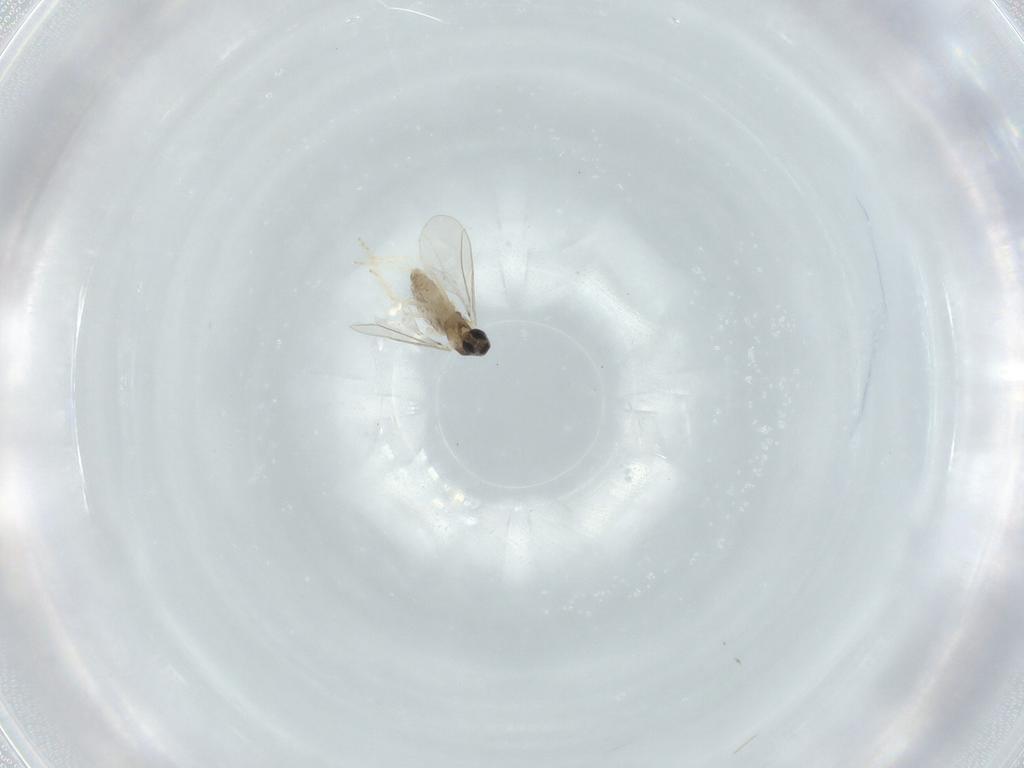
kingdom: Animalia
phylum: Arthropoda
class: Insecta
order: Diptera
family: Cecidomyiidae
